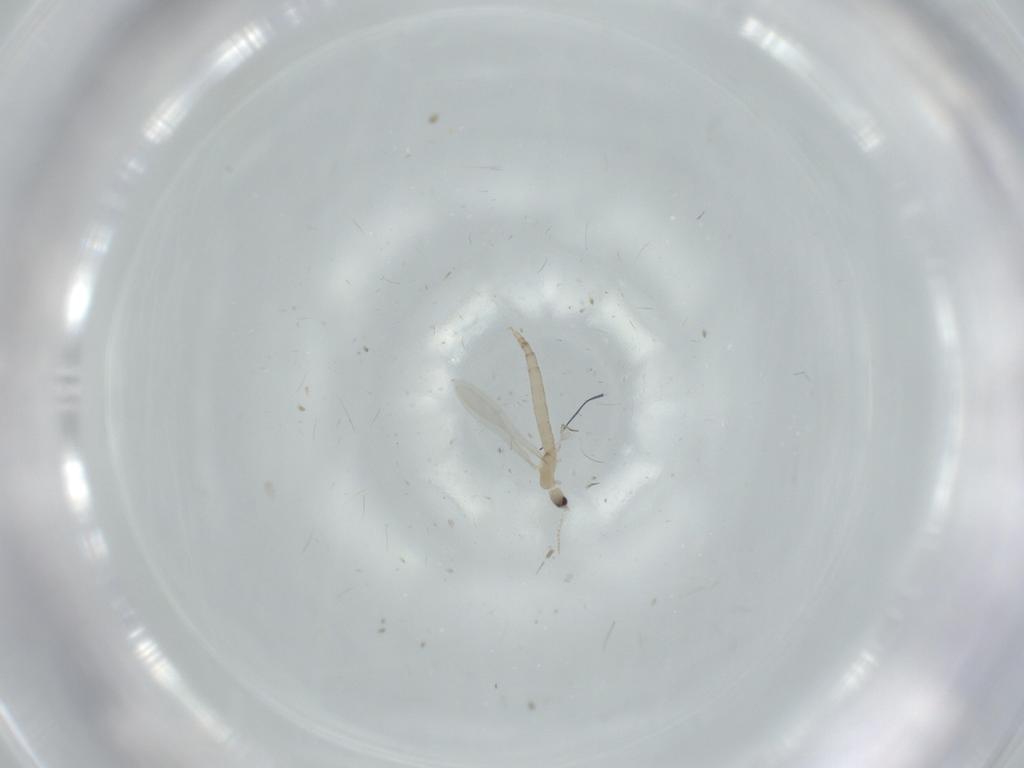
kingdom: Animalia
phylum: Arthropoda
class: Insecta
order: Diptera
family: Cecidomyiidae
